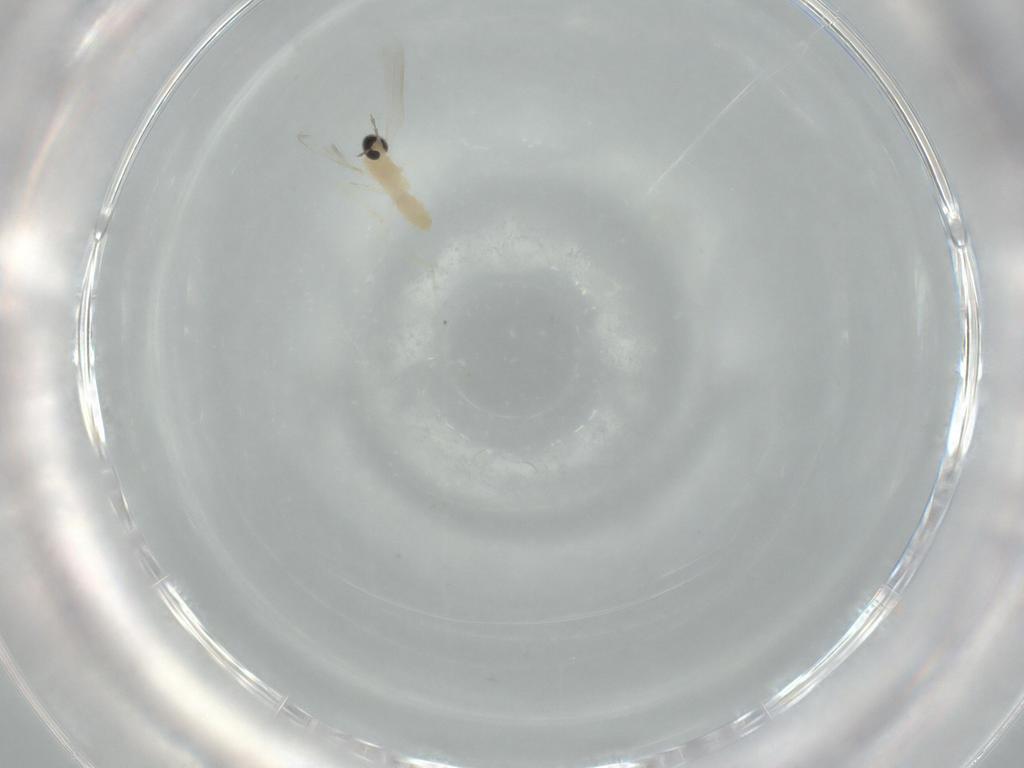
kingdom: Animalia
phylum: Arthropoda
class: Insecta
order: Diptera
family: Cecidomyiidae
